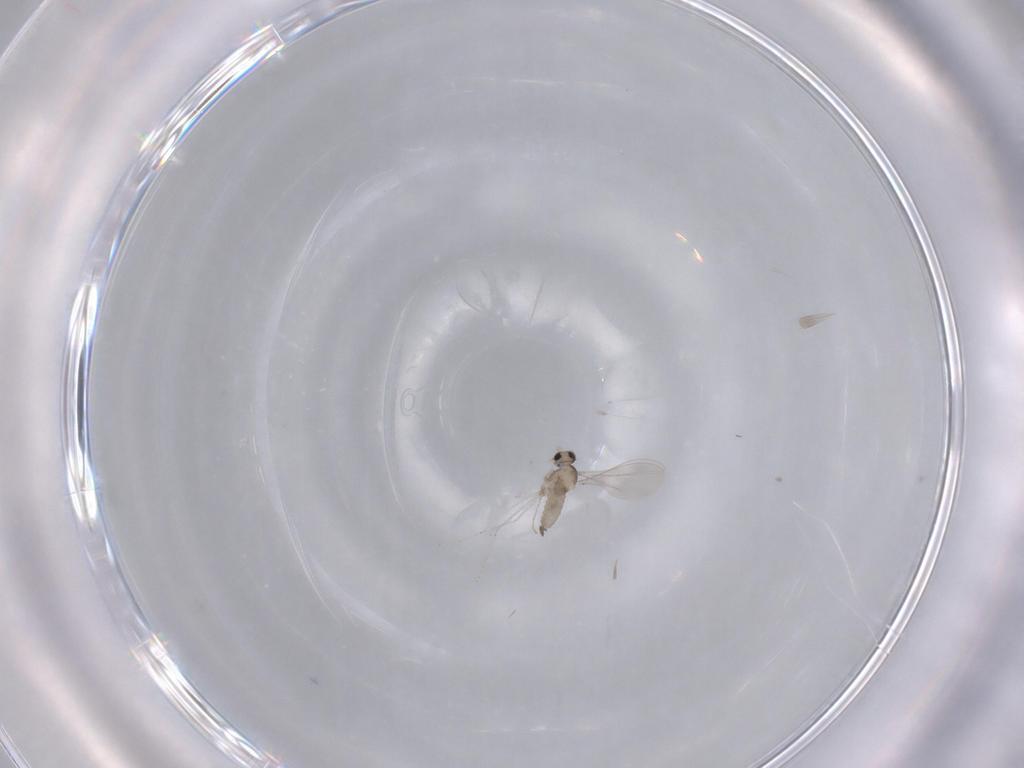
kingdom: Animalia
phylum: Arthropoda
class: Insecta
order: Diptera
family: Cecidomyiidae
